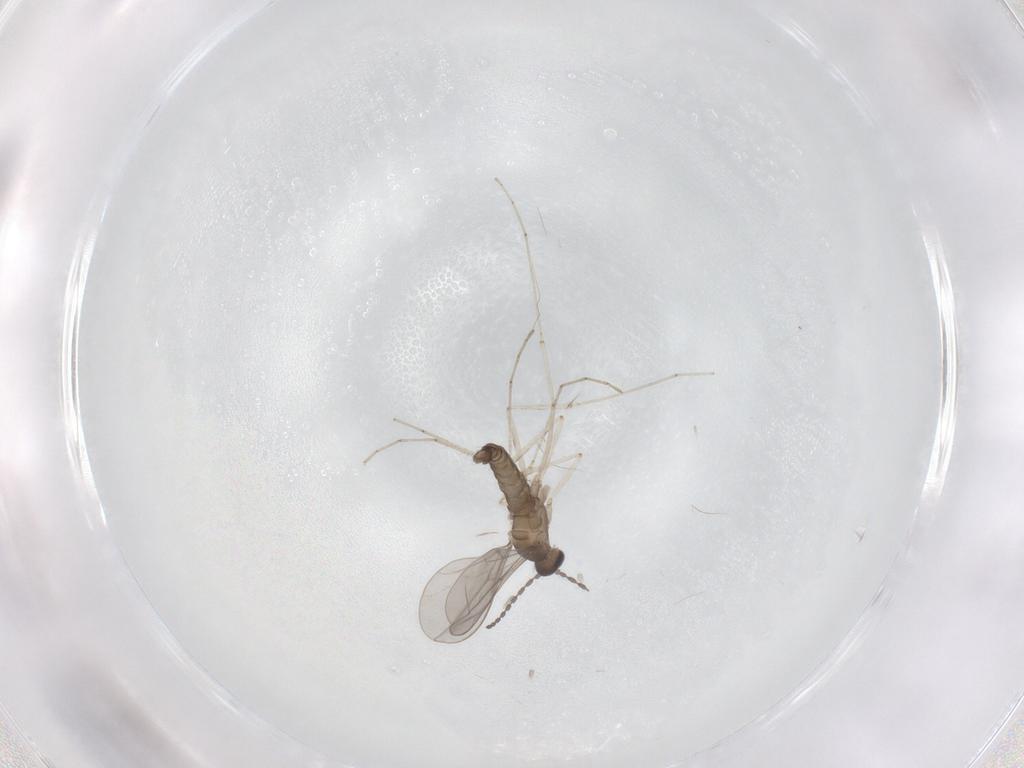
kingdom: Animalia
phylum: Arthropoda
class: Insecta
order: Diptera
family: Cecidomyiidae
